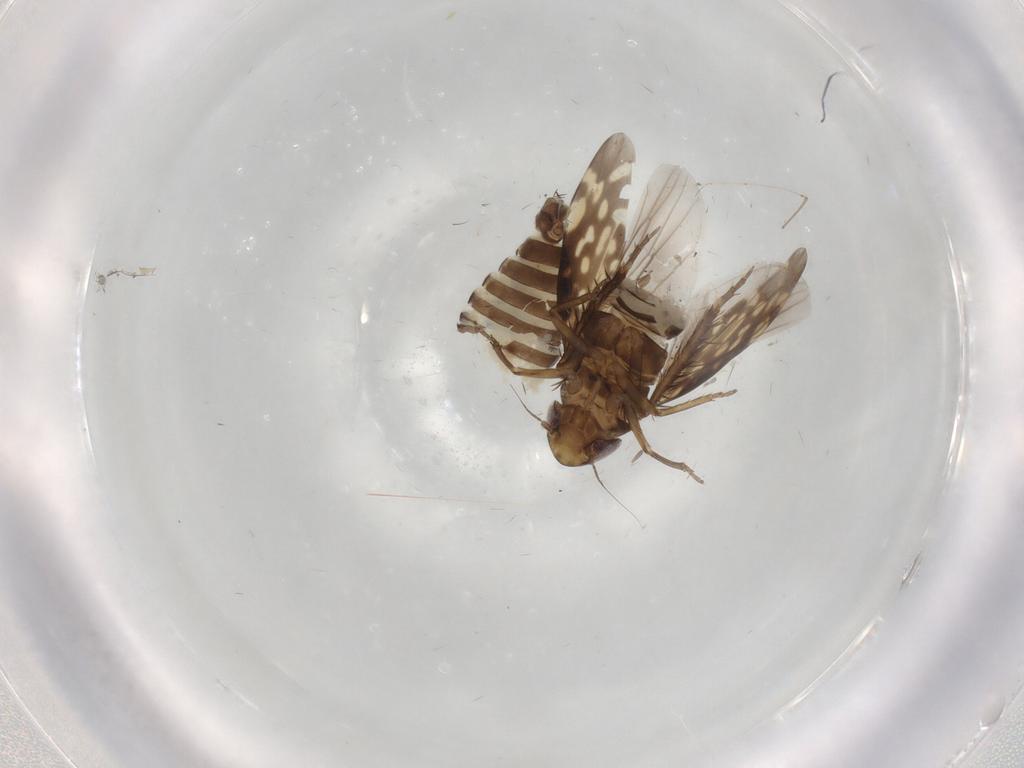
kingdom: Animalia
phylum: Arthropoda
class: Insecta
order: Hemiptera
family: Cicadellidae
